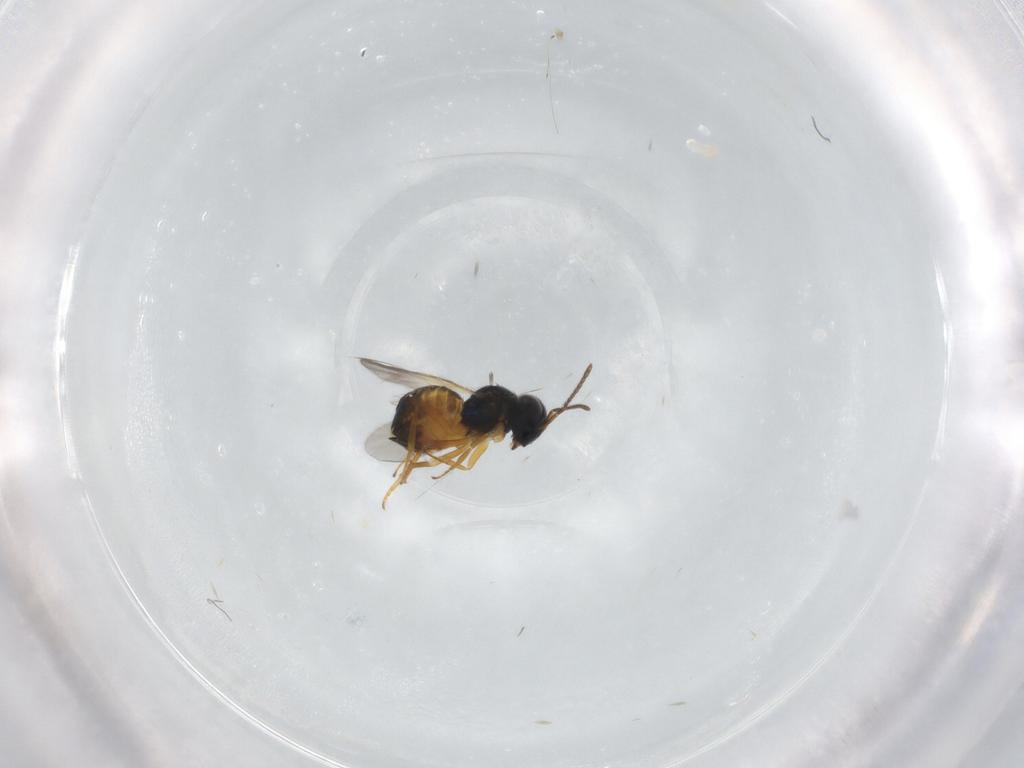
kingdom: Animalia
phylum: Arthropoda
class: Insecta
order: Hymenoptera
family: Encyrtidae
